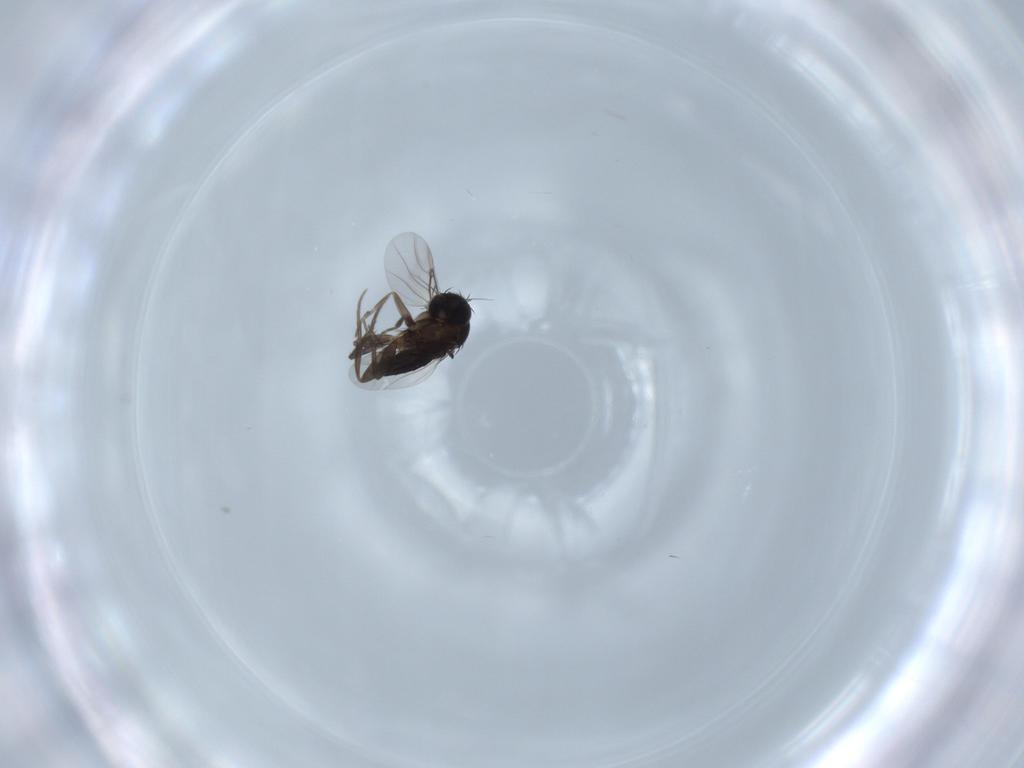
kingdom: Animalia
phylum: Arthropoda
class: Insecta
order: Diptera
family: Phoridae
